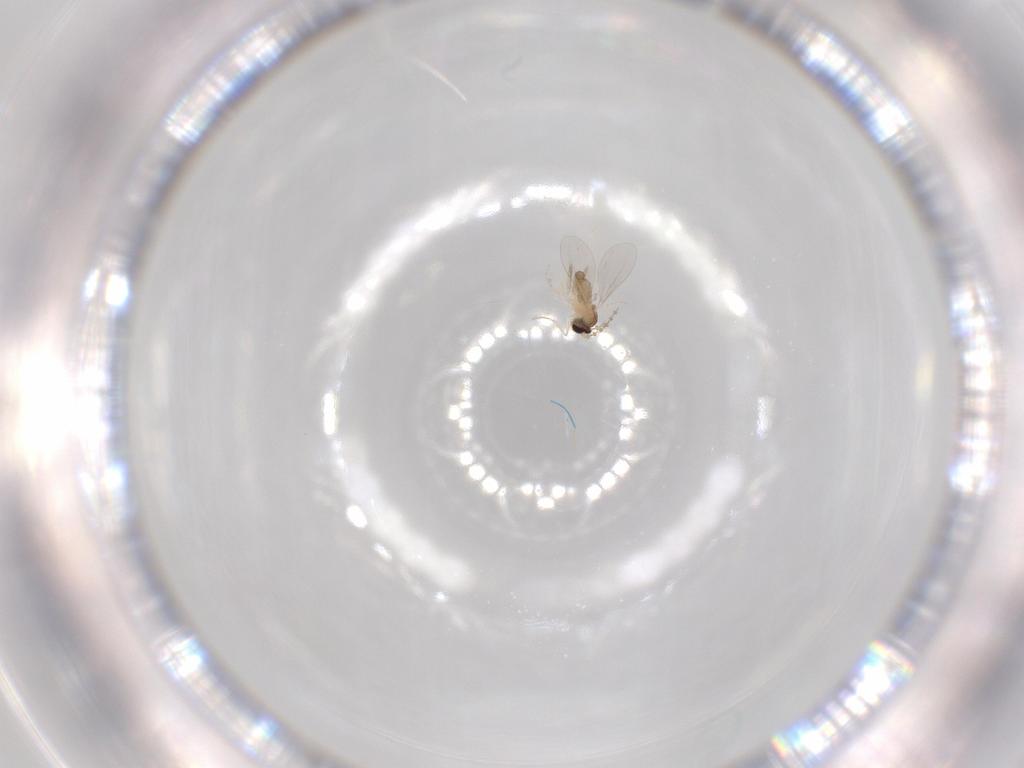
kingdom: Animalia
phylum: Arthropoda
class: Insecta
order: Diptera
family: Cecidomyiidae
